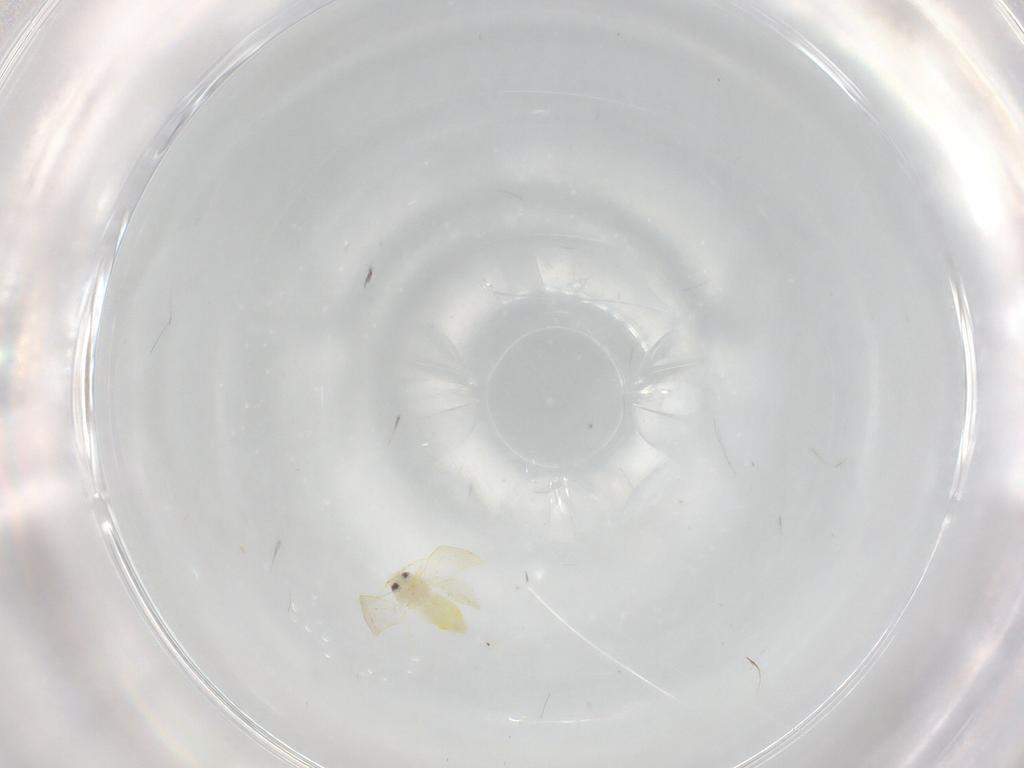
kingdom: Animalia
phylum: Arthropoda
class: Insecta
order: Hemiptera
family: Aleyrodidae
